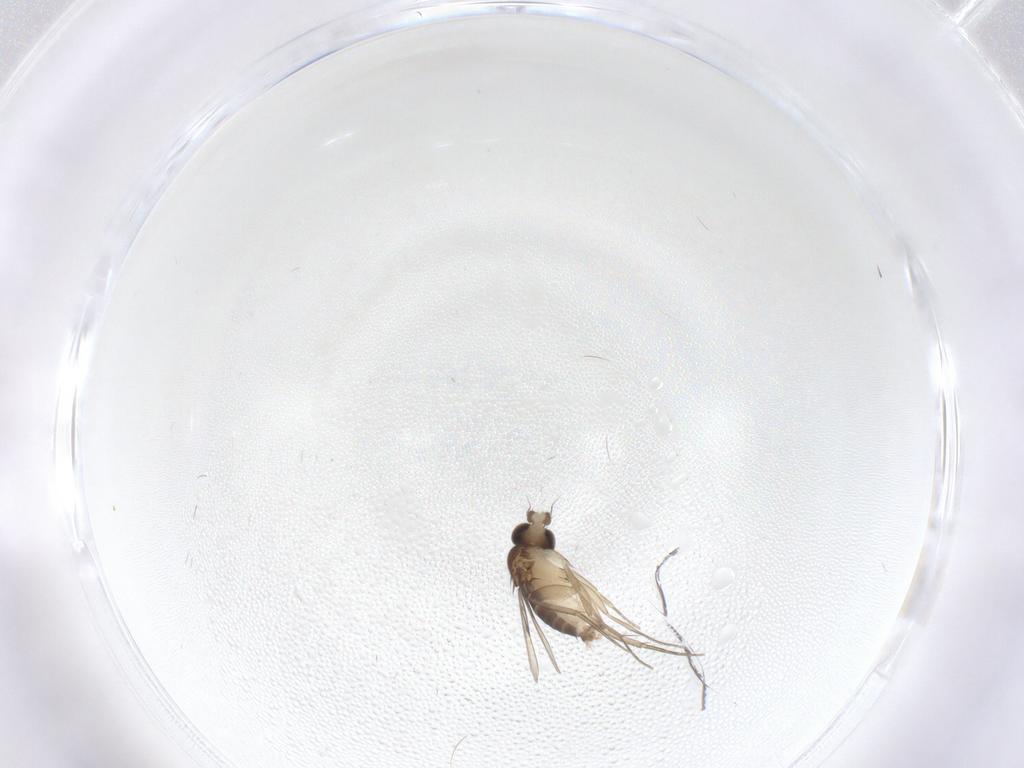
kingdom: Animalia
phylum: Arthropoda
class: Insecta
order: Diptera
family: Phoridae
